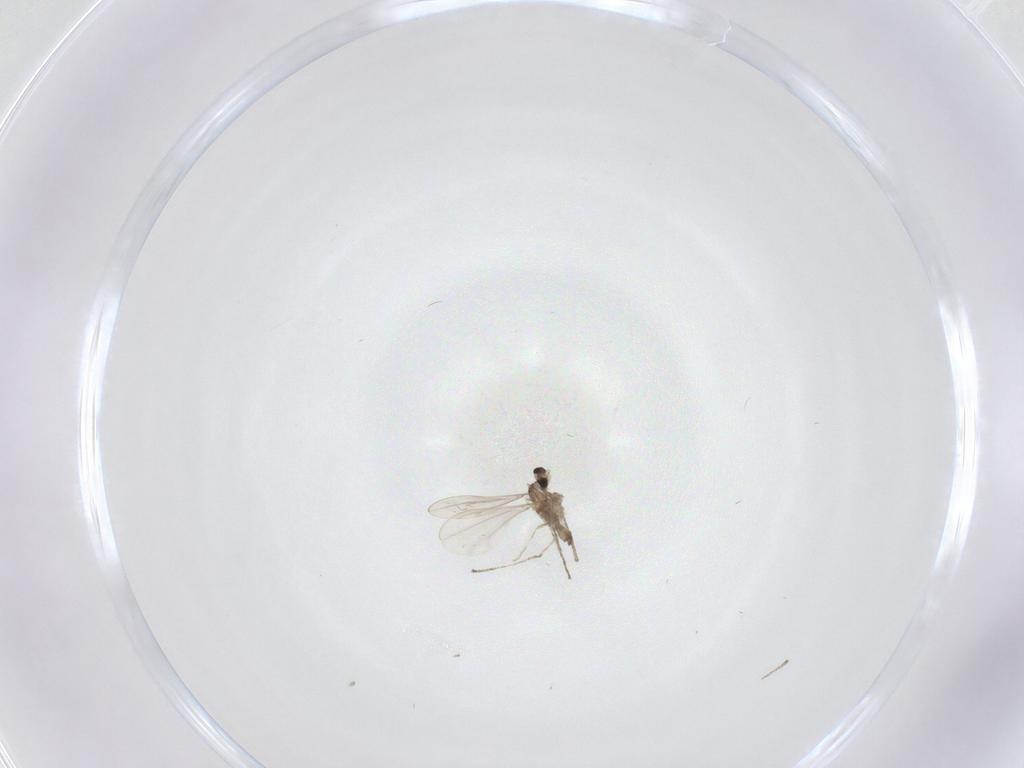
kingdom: Animalia
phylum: Arthropoda
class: Insecta
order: Diptera
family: Cecidomyiidae
